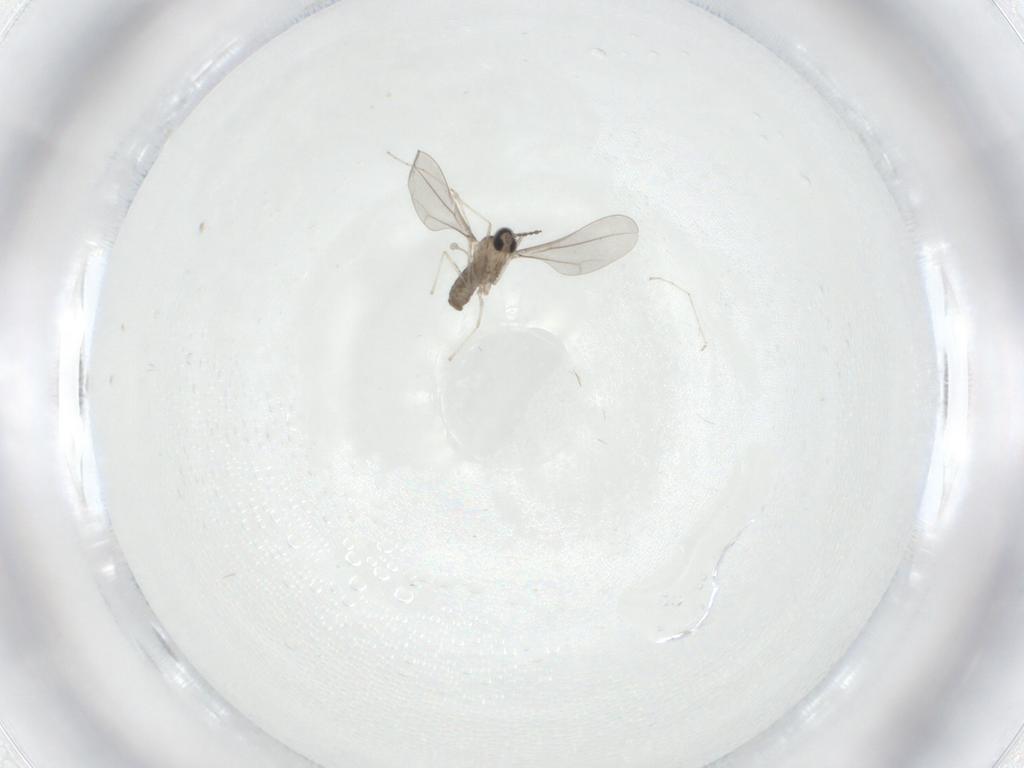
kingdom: Animalia
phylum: Arthropoda
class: Insecta
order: Diptera
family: Cecidomyiidae
